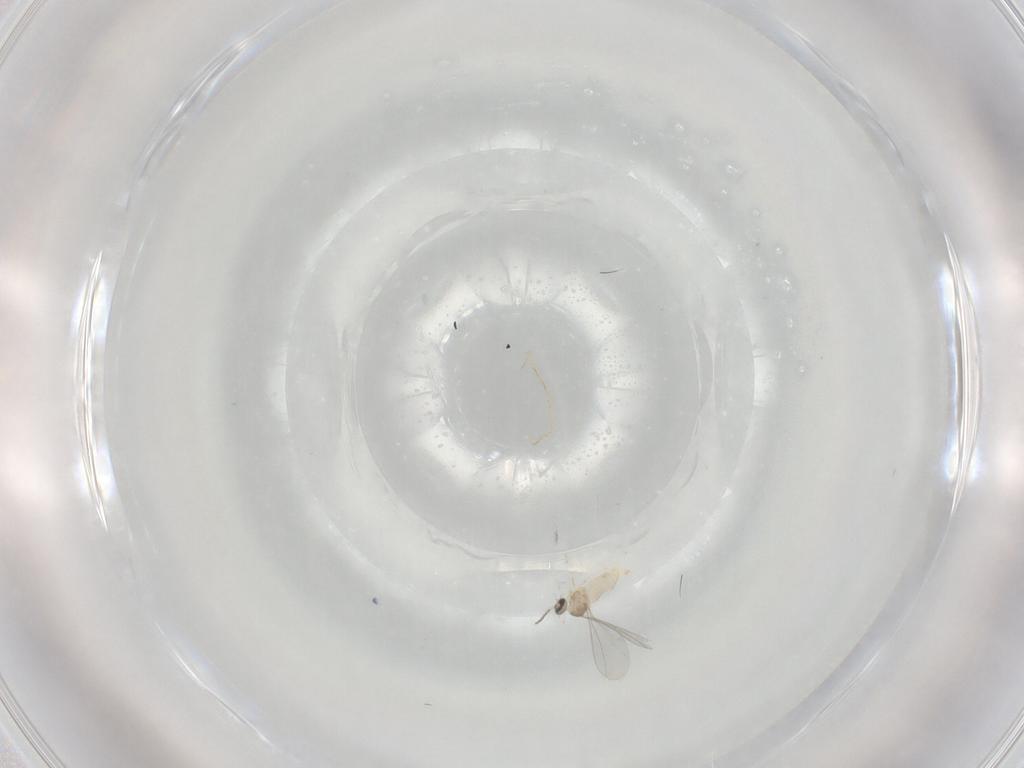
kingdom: Animalia
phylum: Arthropoda
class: Insecta
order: Diptera
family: Cecidomyiidae
